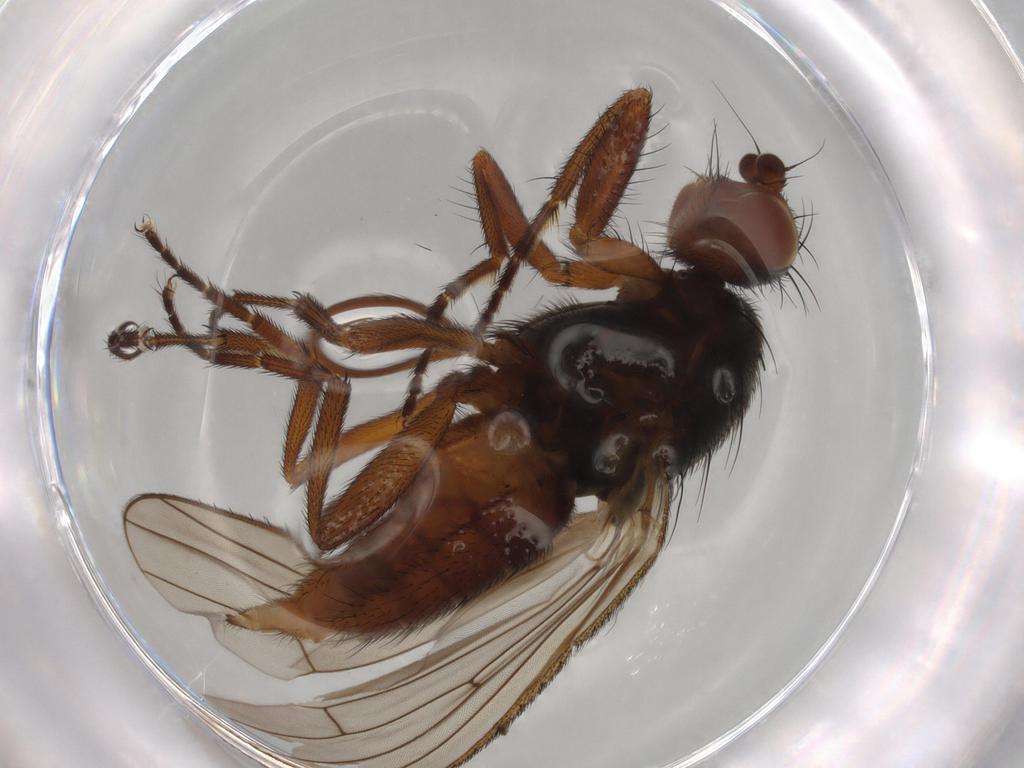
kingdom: Animalia
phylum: Arthropoda
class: Insecta
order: Diptera
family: Heleomyzidae
